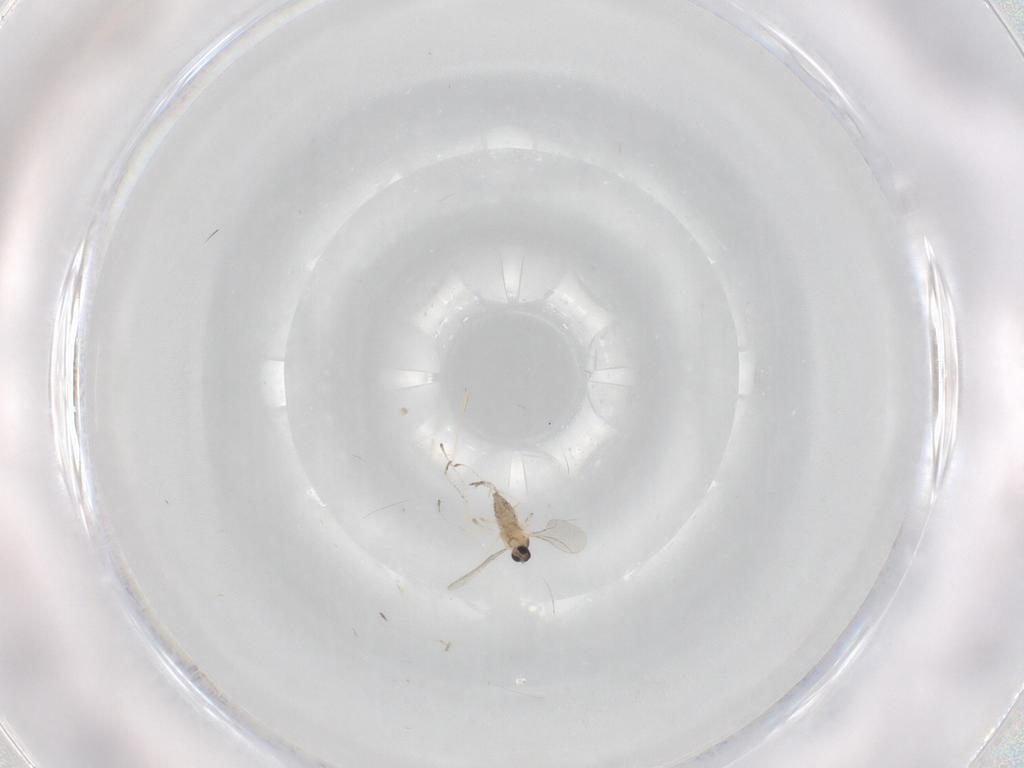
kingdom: Animalia
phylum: Arthropoda
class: Insecta
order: Diptera
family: Cecidomyiidae
